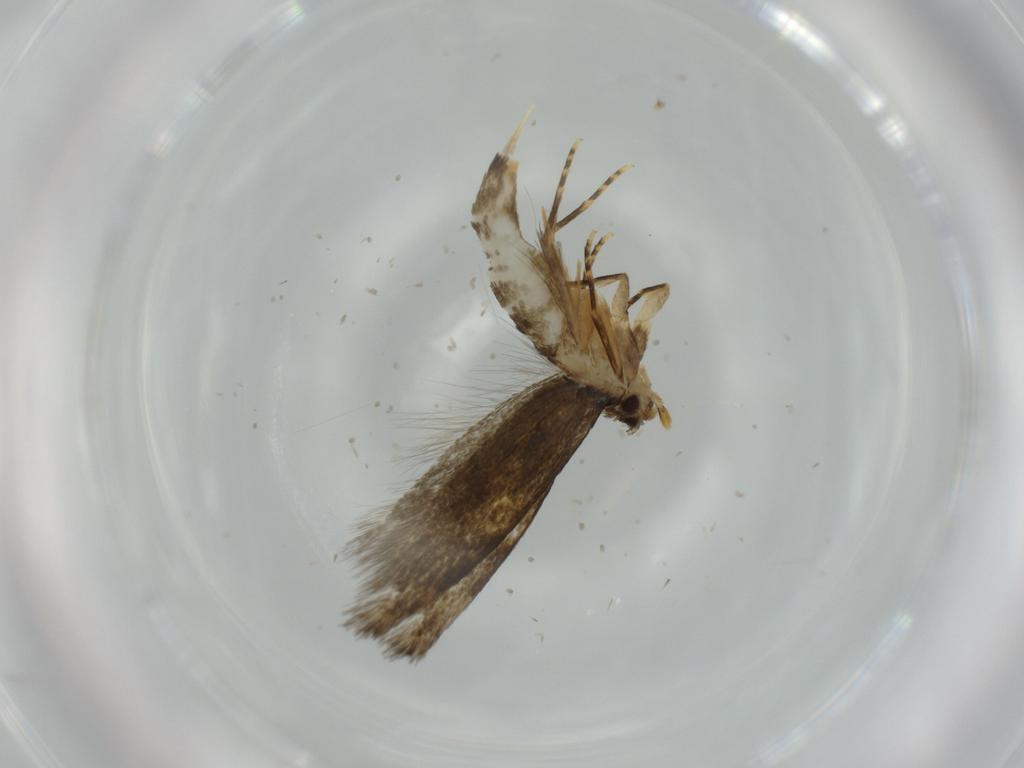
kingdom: Animalia
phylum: Arthropoda
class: Insecta
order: Lepidoptera
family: Tineidae
